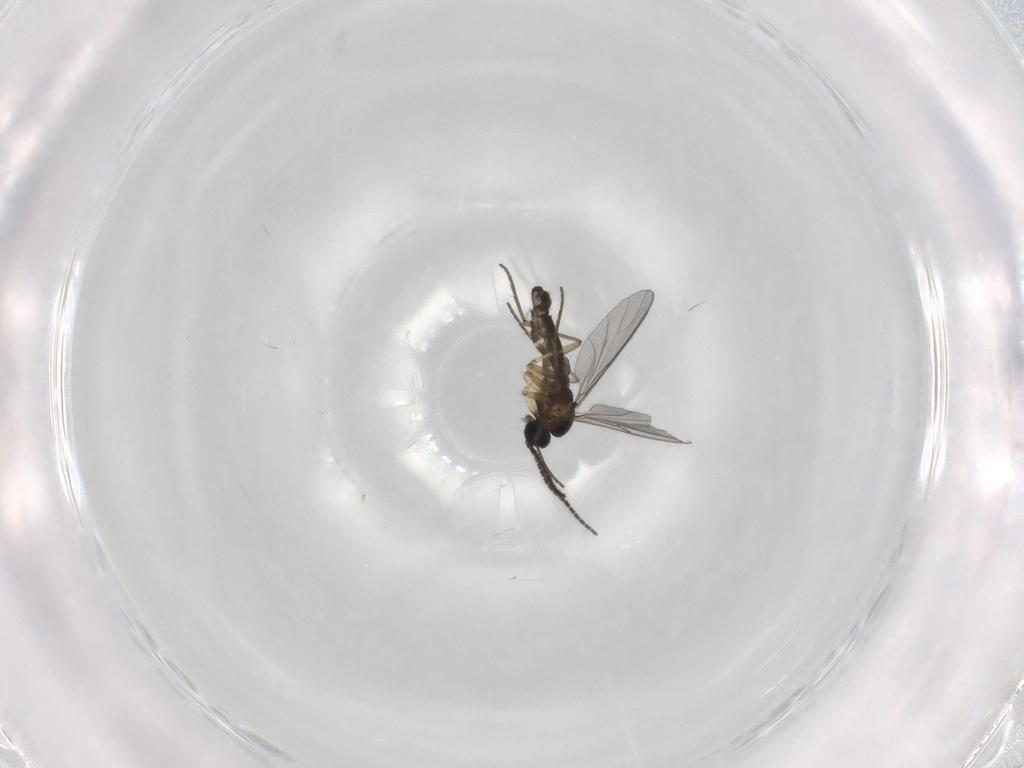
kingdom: Animalia
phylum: Arthropoda
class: Insecta
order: Diptera
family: Sciaridae
